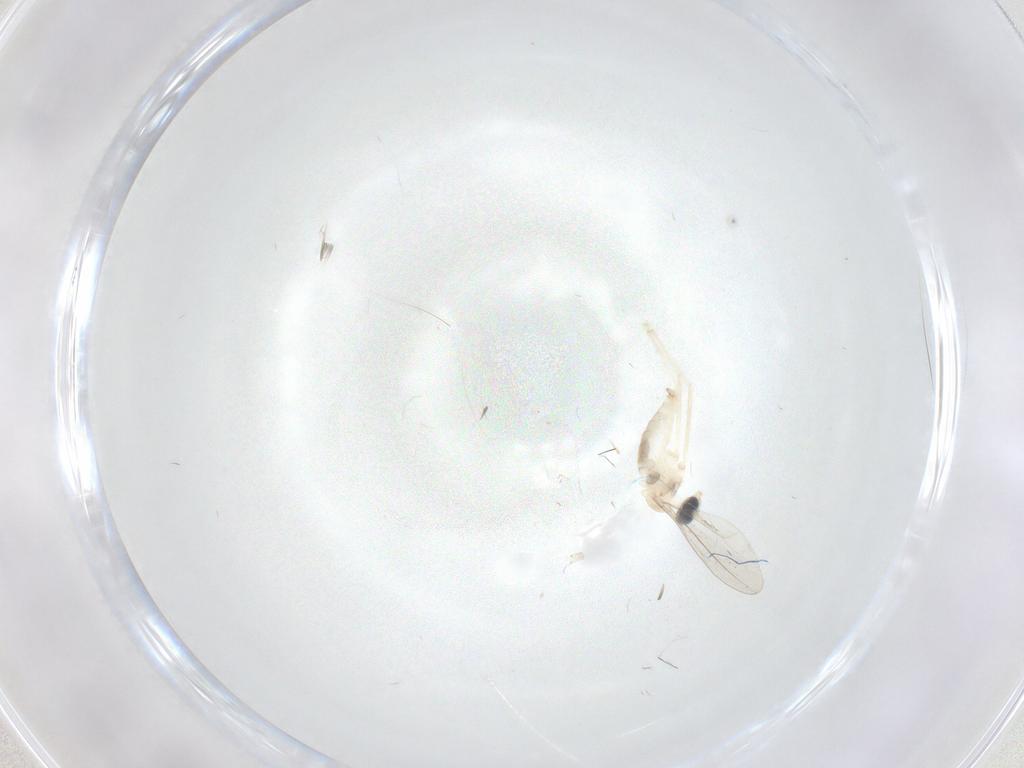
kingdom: Animalia
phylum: Arthropoda
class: Insecta
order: Diptera
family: Cecidomyiidae
